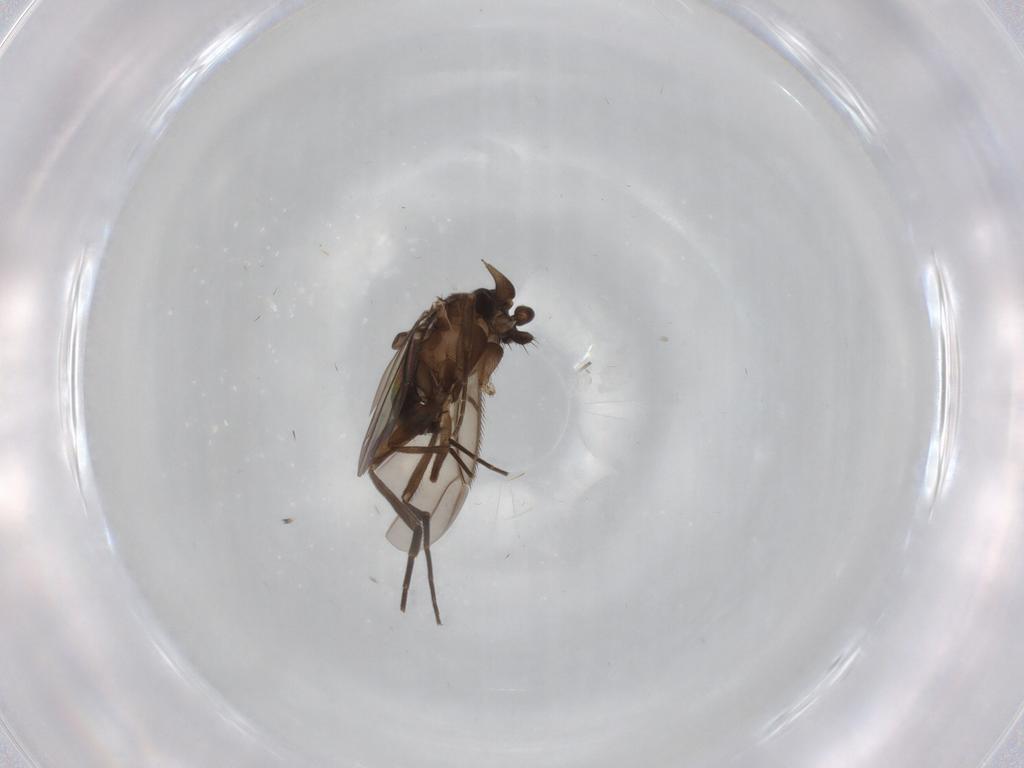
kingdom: Animalia
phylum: Arthropoda
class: Insecta
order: Diptera
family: Phoridae
